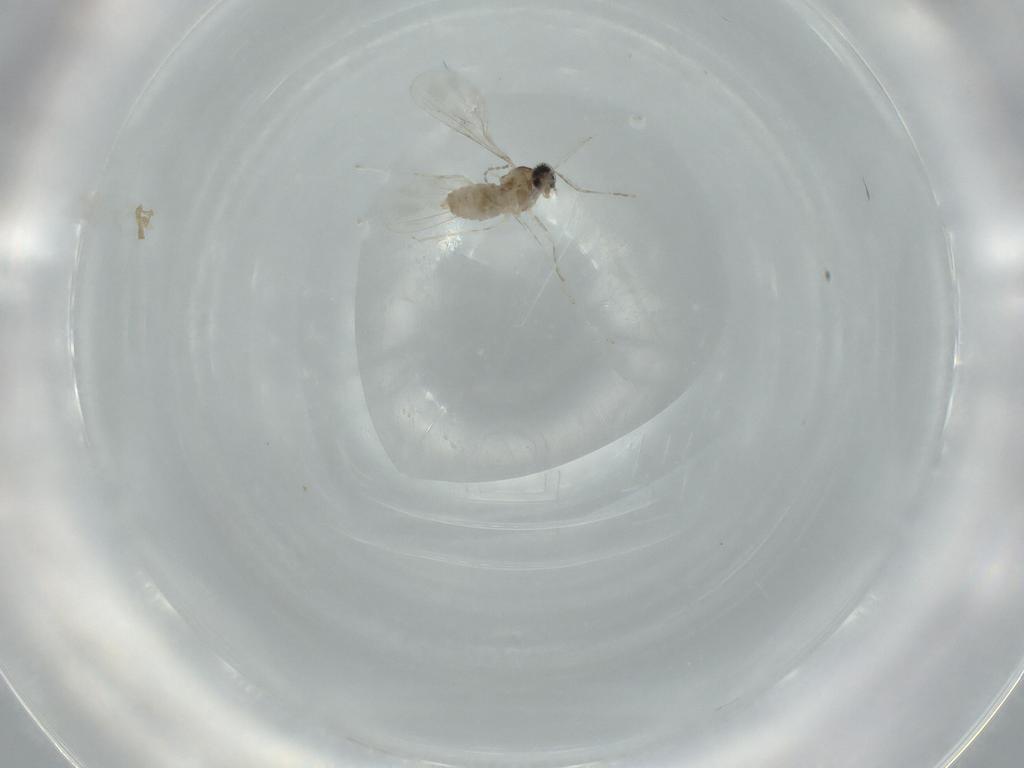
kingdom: Animalia
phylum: Arthropoda
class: Insecta
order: Diptera
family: Cecidomyiidae
